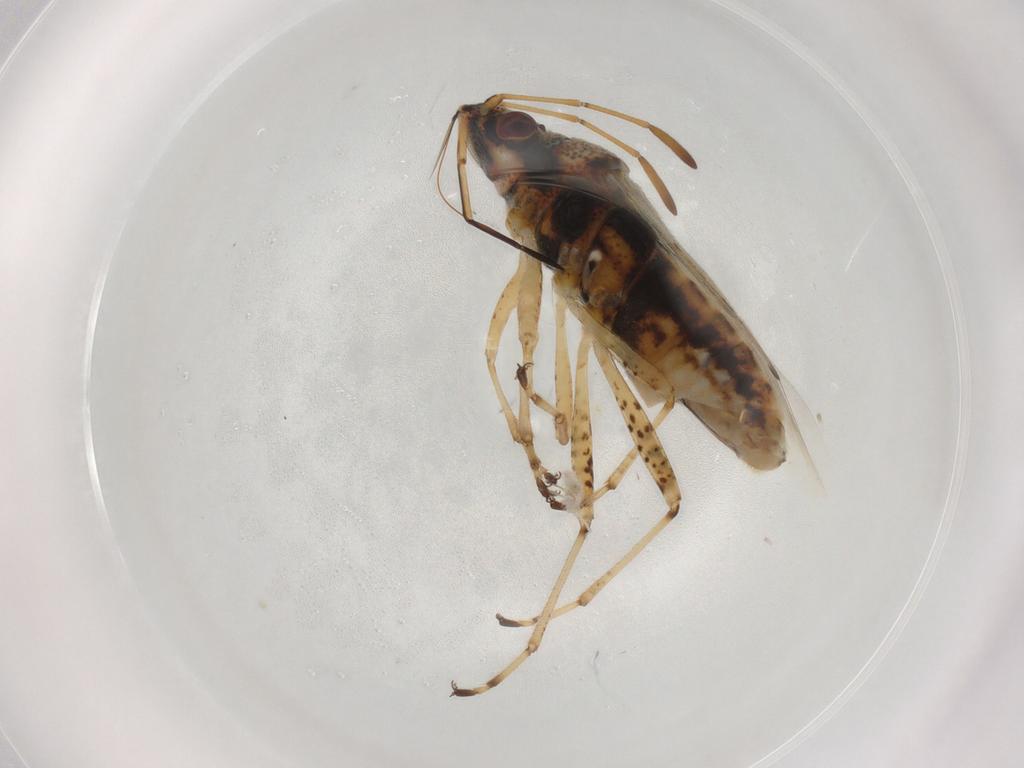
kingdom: Animalia
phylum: Arthropoda
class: Insecta
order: Hemiptera
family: Lygaeidae
